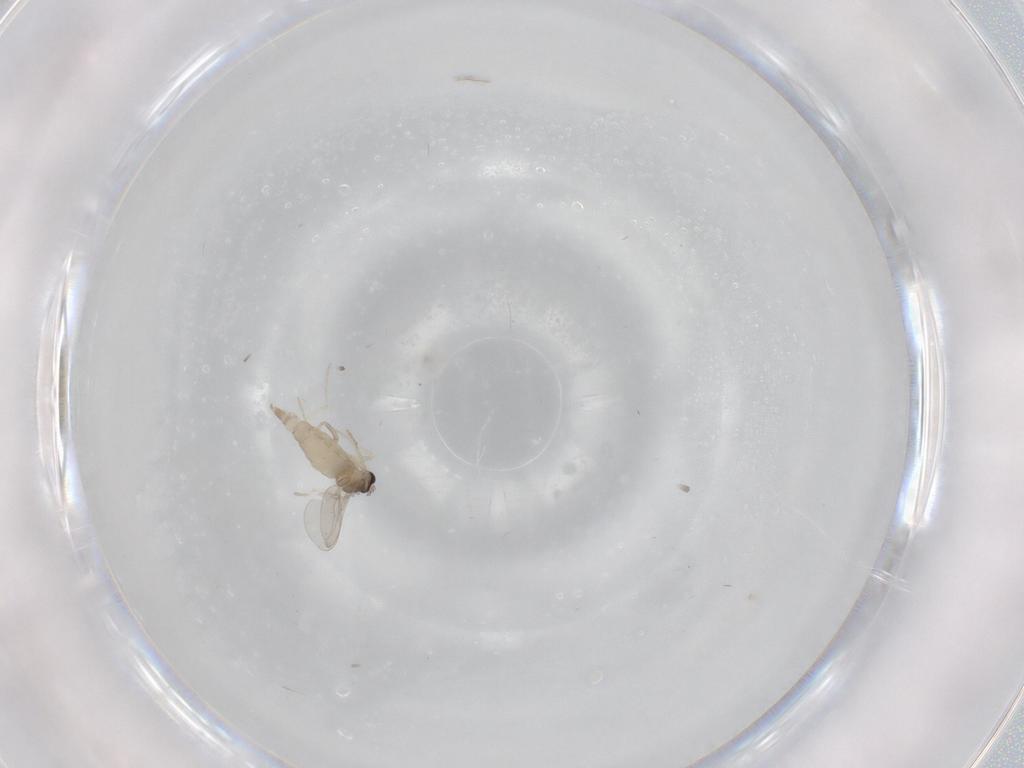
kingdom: Animalia
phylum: Arthropoda
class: Insecta
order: Diptera
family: Cecidomyiidae
